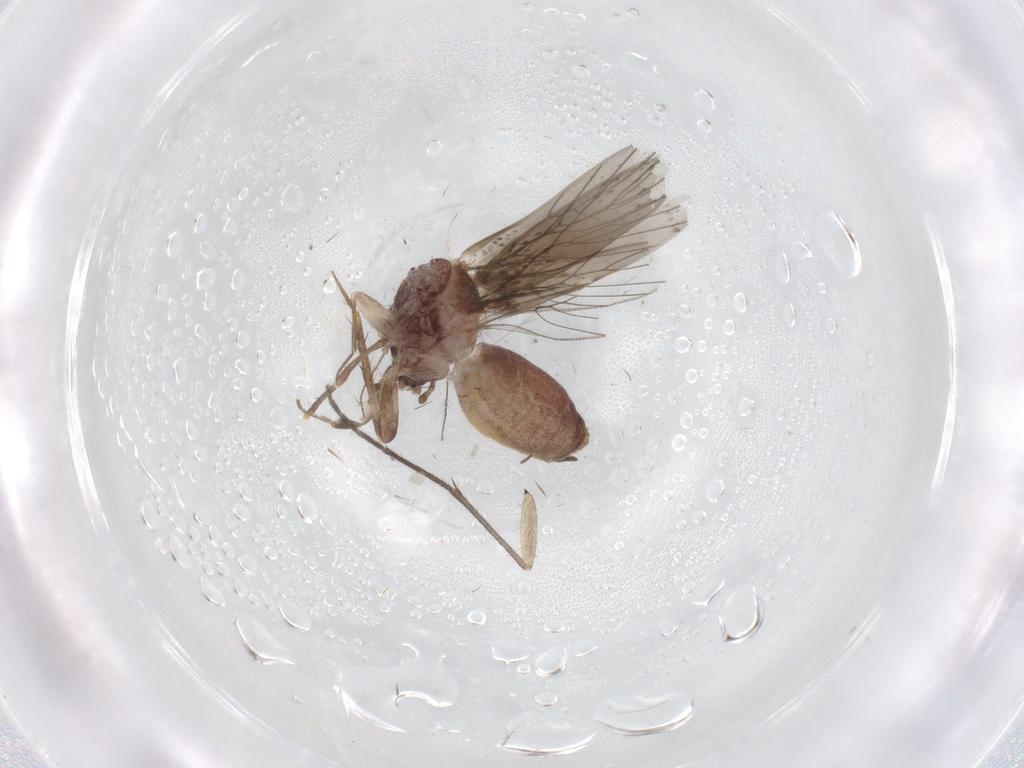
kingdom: Animalia
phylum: Arthropoda
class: Insecta
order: Psocodea
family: Lepidopsocidae
